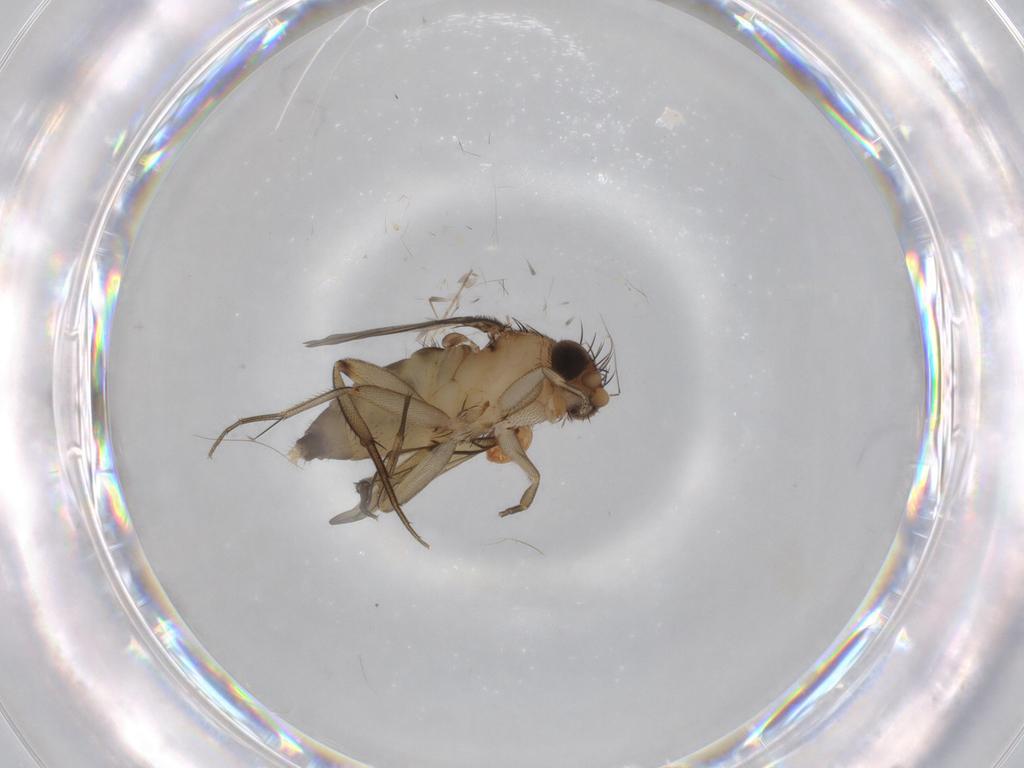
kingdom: Animalia
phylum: Arthropoda
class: Insecta
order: Diptera
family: Phoridae
